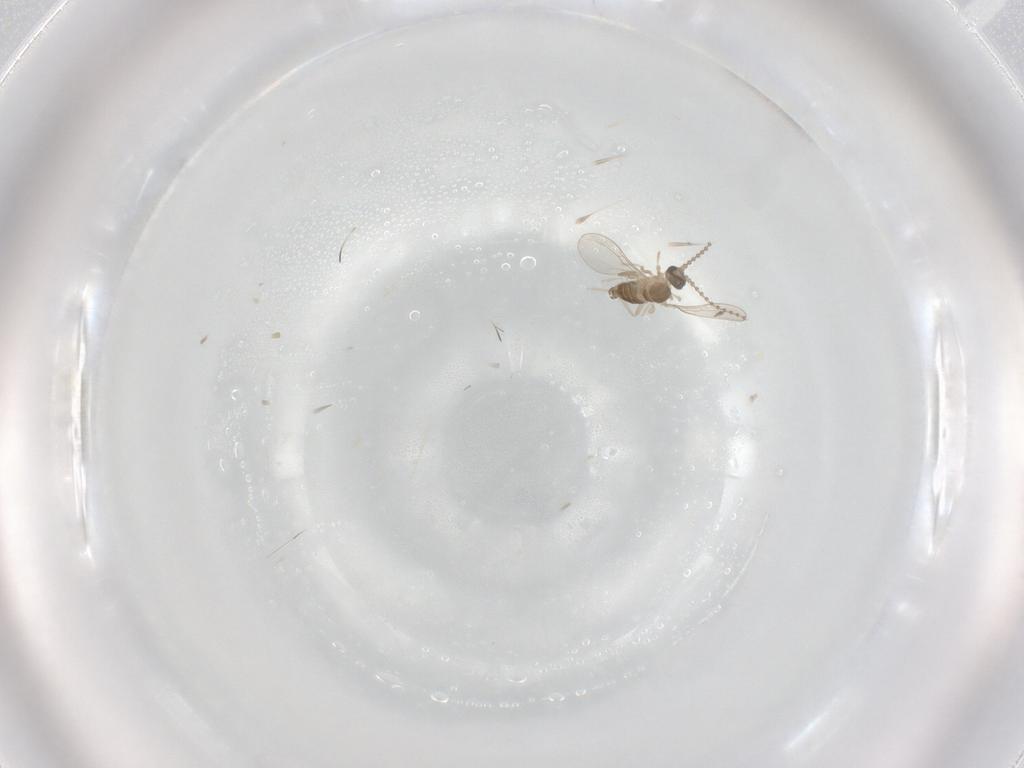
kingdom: Animalia
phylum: Arthropoda
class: Insecta
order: Diptera
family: Cecidomyiidae
